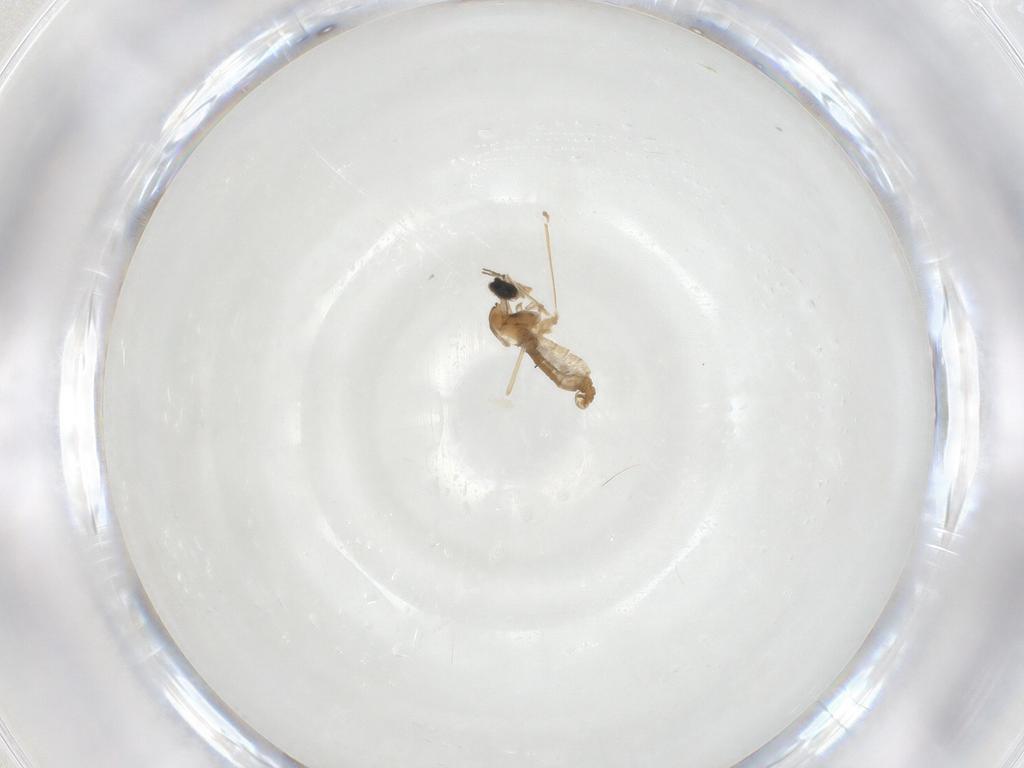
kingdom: Animalia
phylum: Arthropoda
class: Insecta
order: Diptera
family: Cecidomyiidae
